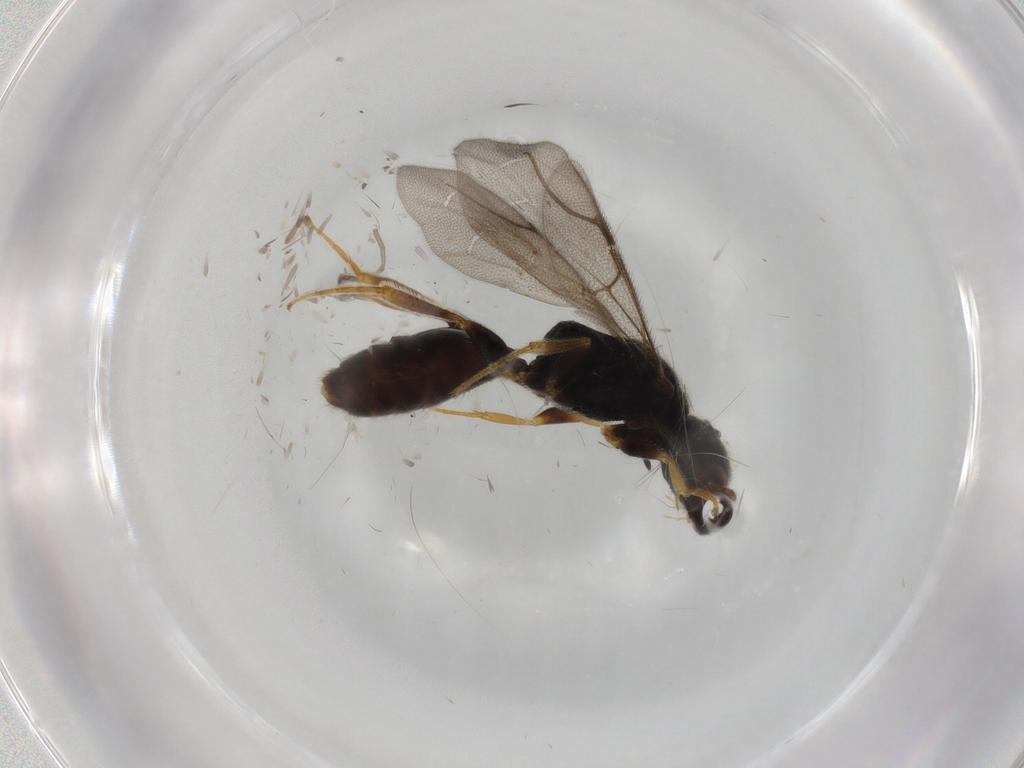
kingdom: Animalia
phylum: Arthropoda
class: Insecta
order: Hymenoptera
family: Bethylidae
